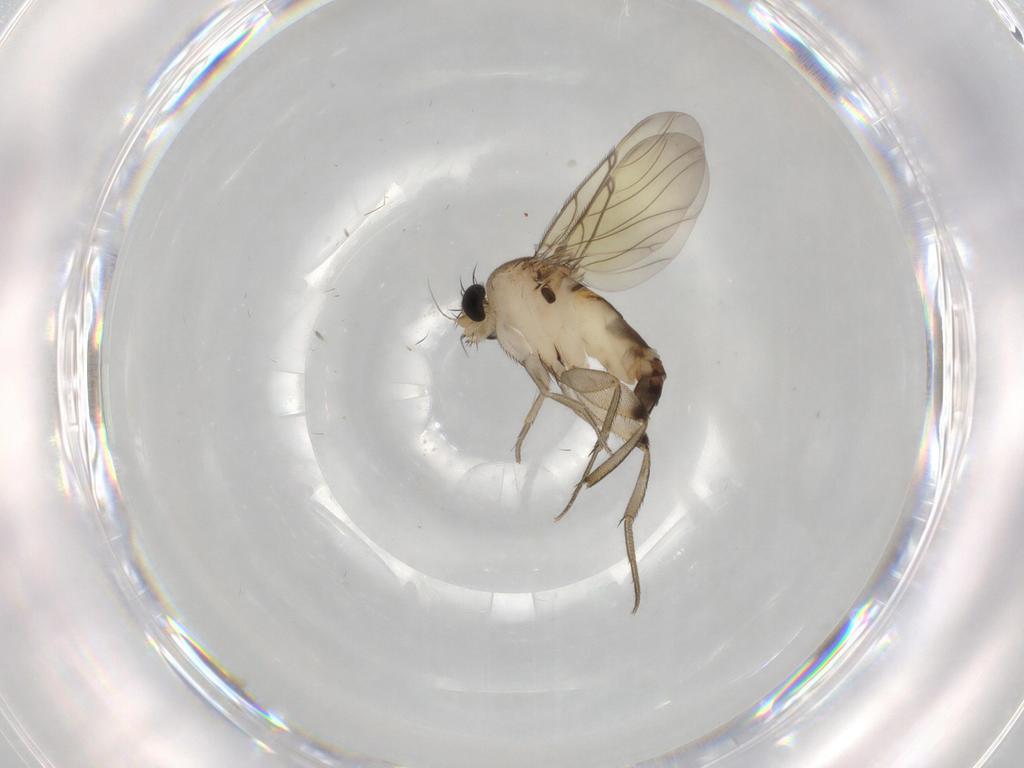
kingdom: Animalia
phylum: Arthropoda
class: Insecta
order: Diptera
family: Phoridae
